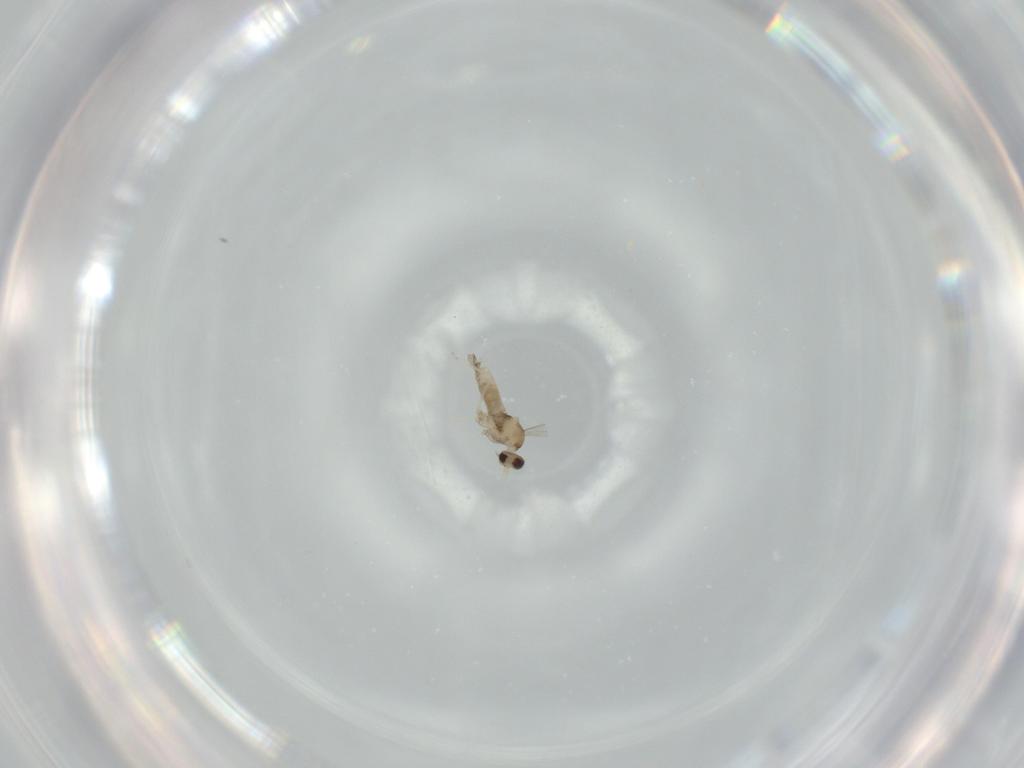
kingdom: Animalia
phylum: Arthropoda
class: Insecta
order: Diptera
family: Cecidomyiidae
